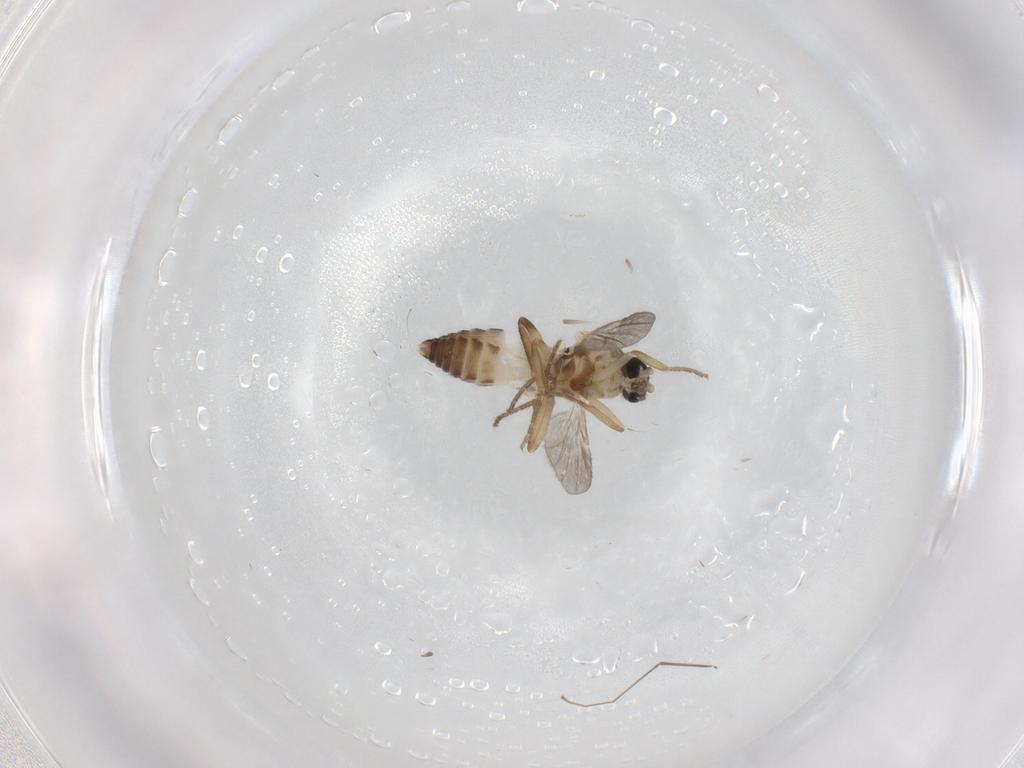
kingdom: Animalia
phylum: Arthropoda
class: Insecta
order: Diptera
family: Ceratopogonidae
